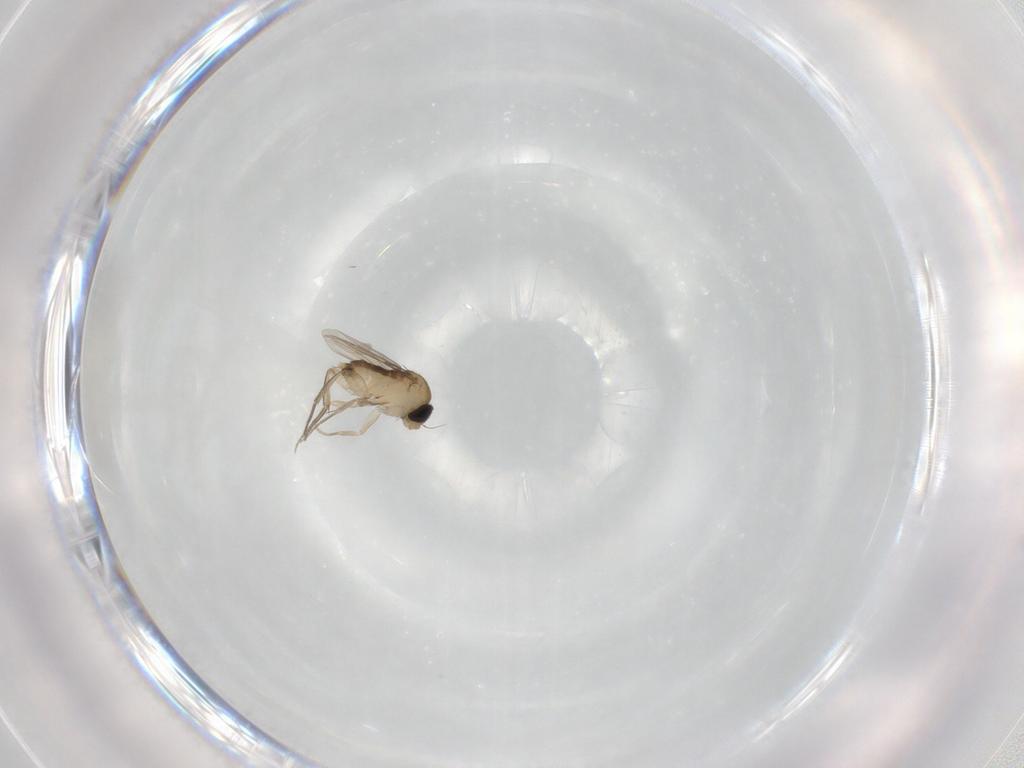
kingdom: Animalia
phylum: Arthropoda
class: Insecta
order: Diptera
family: Phoridae
